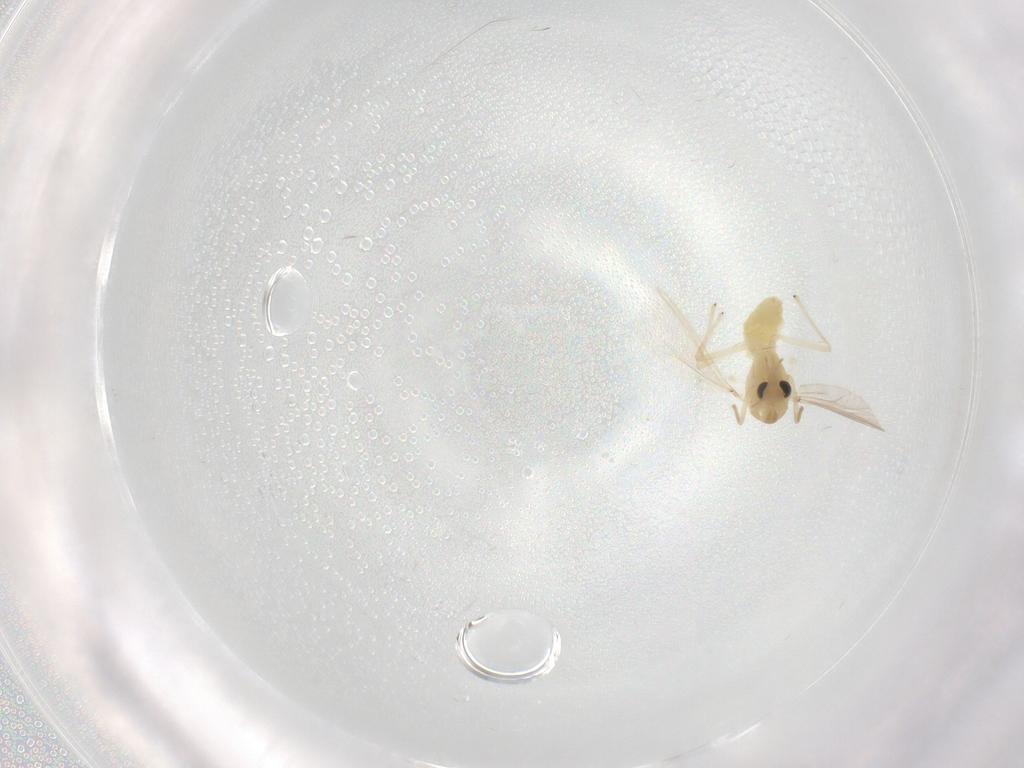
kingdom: Animalia
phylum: Arthropoda
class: Insecta
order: Diptera
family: Chironomidae
